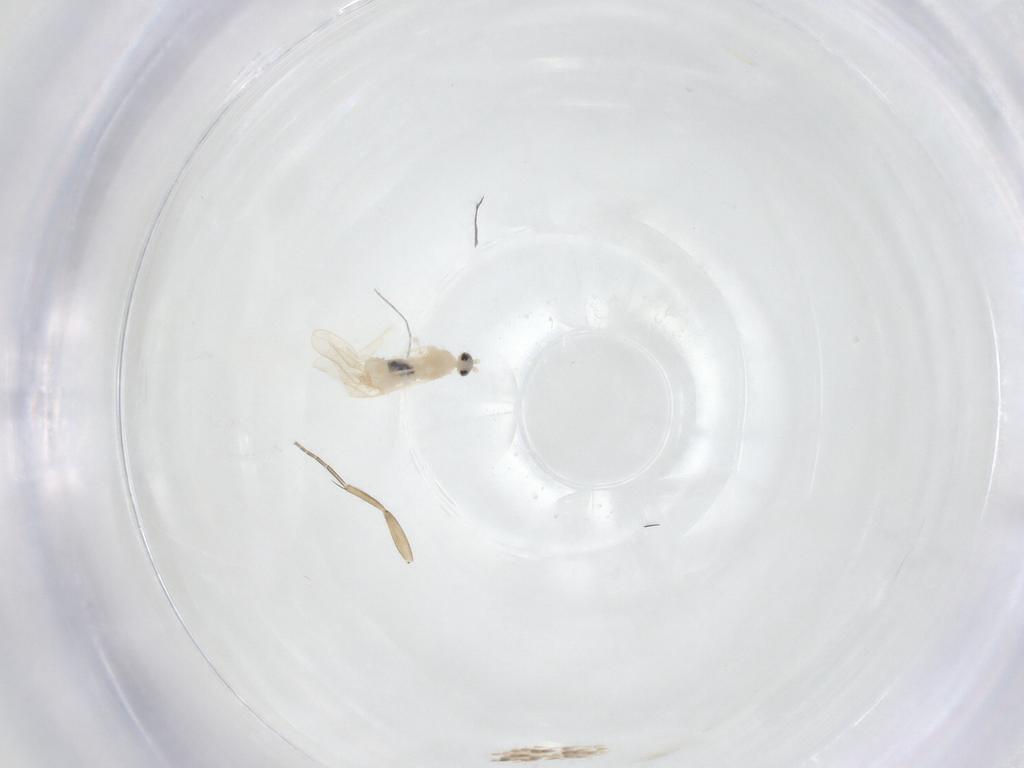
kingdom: Animalia
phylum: Arthropoda
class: Insecta
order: Diptera
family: Cecidomyiidae
